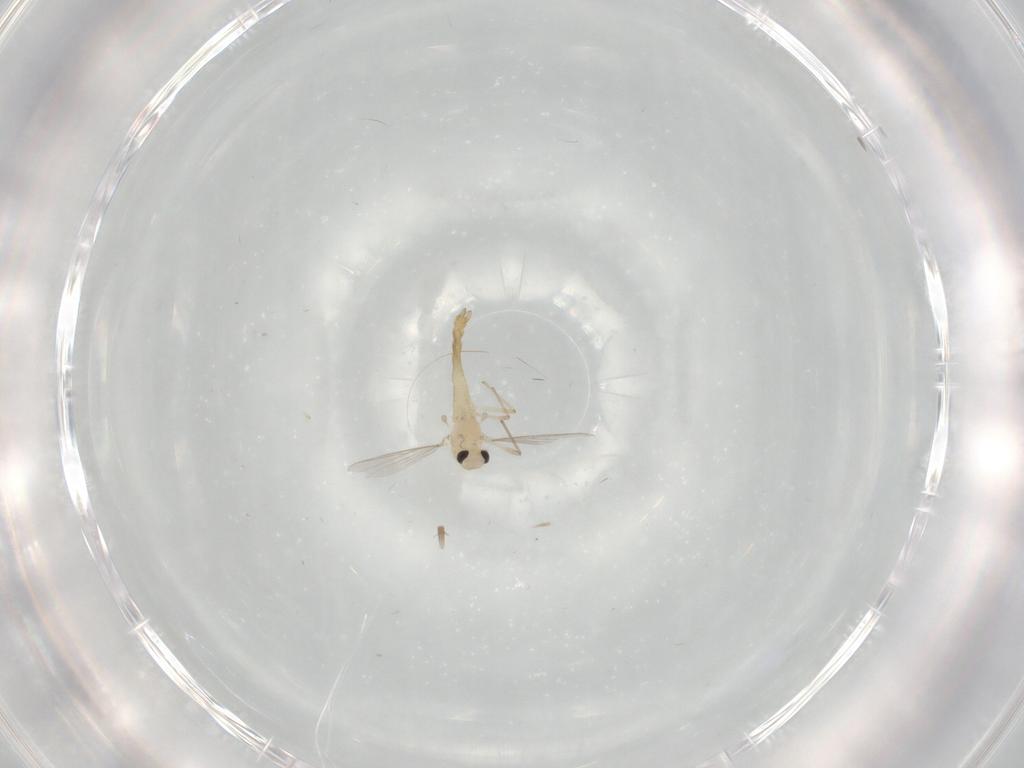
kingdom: Animalia
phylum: Arthropoda
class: Insecta
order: Diptera
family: Chironomidae
